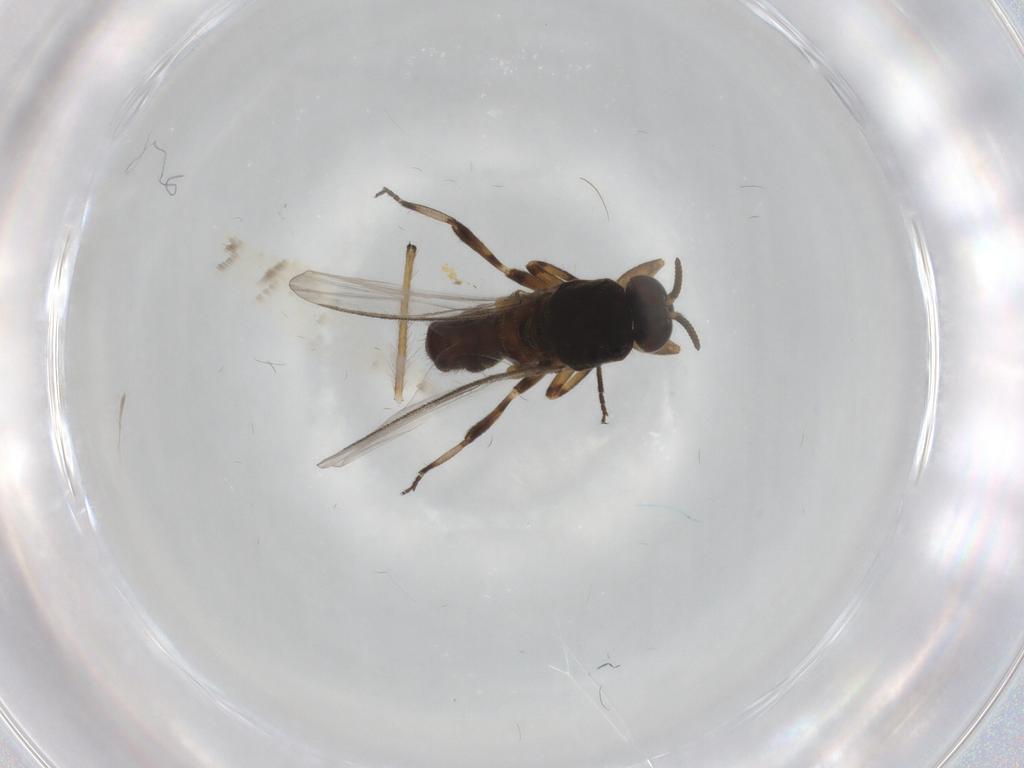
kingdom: Animalia
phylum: Arthropoda
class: Insecta
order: Diptera
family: Chironomidae
